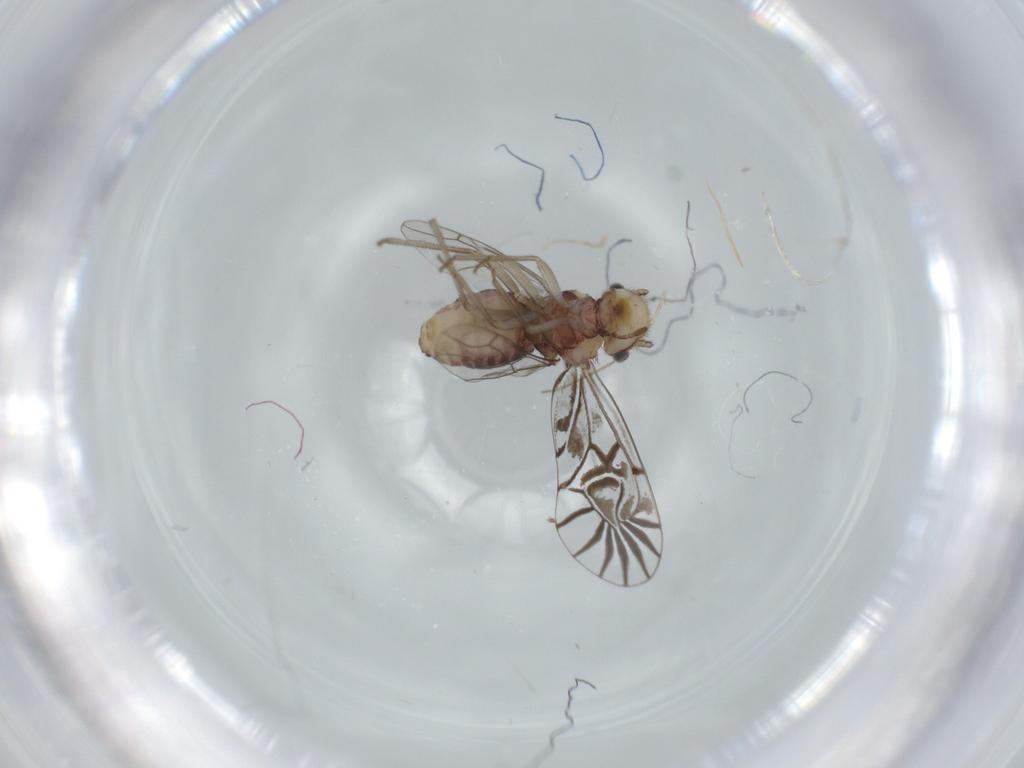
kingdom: Animalia
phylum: Arthropoda
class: Insecta
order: Psocodea
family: Amphipsocidae
